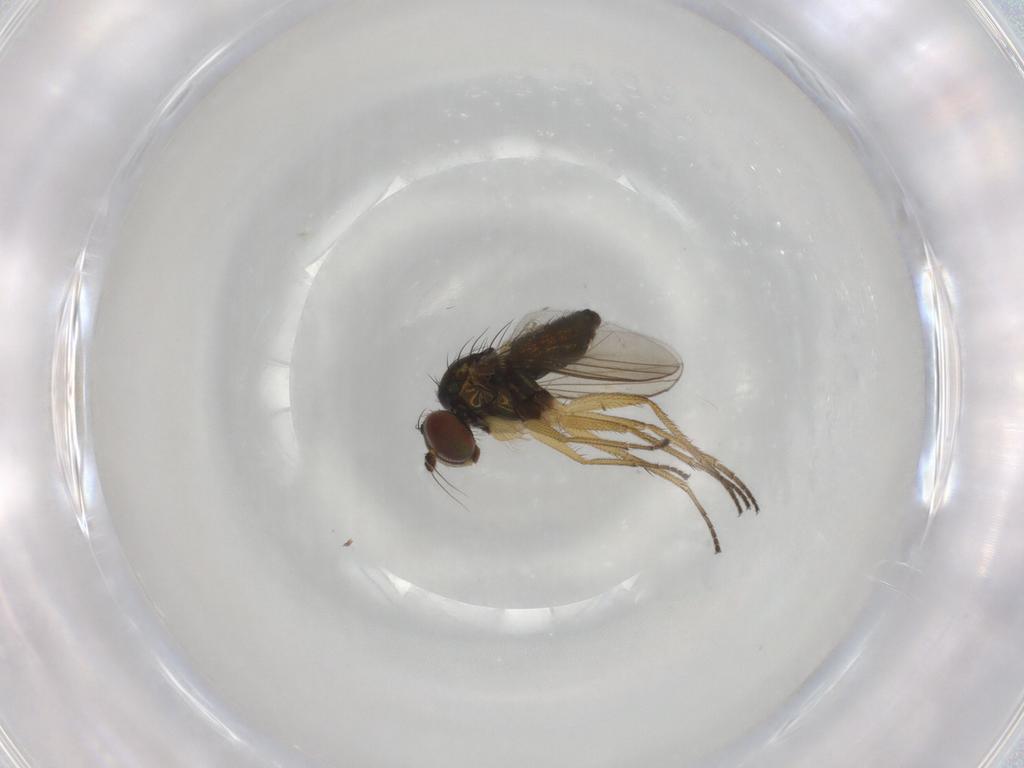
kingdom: Animalia
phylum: Arthropoda
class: Insecta
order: Diptera
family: Dolichopodidae
